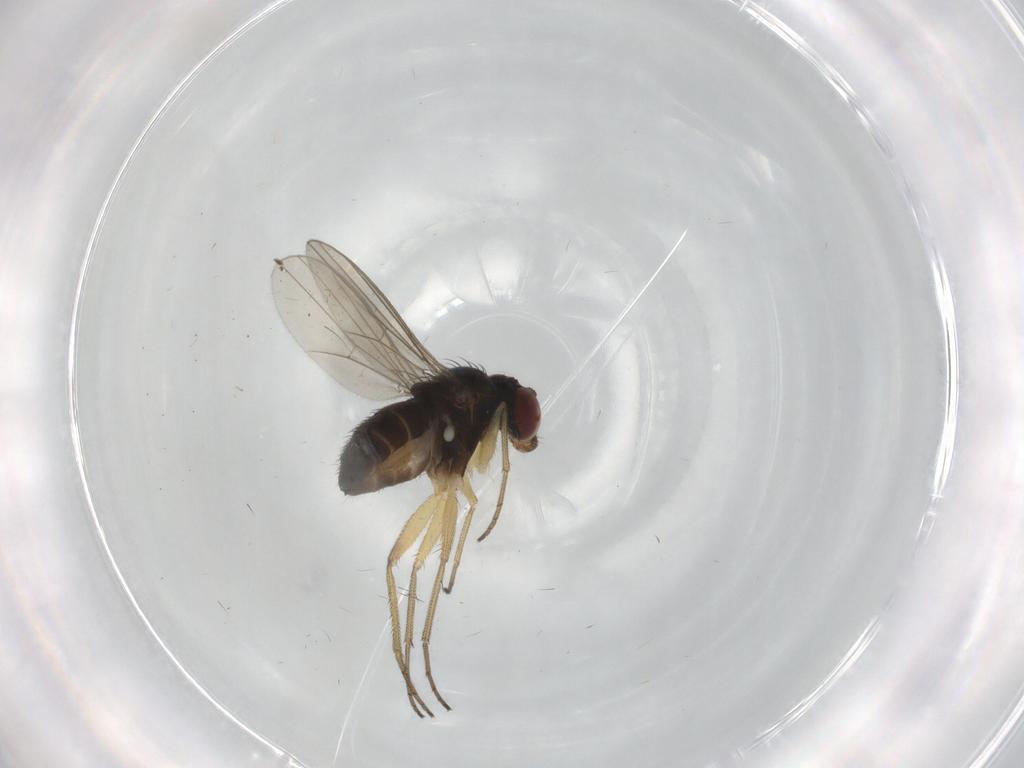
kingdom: Animalia
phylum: Arthropoda
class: Insecta
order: Diptera
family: Dolichopodidae
